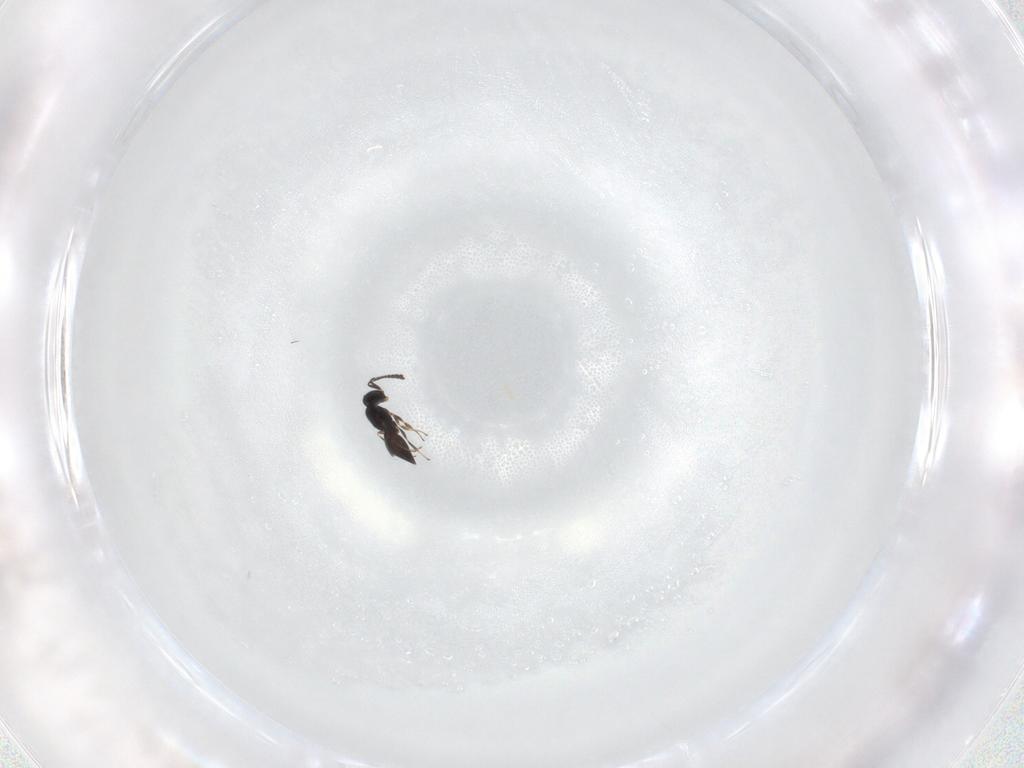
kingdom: Animalia
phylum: Arthropoda
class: Insecta
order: Hymenoptera
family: Scelionidae
